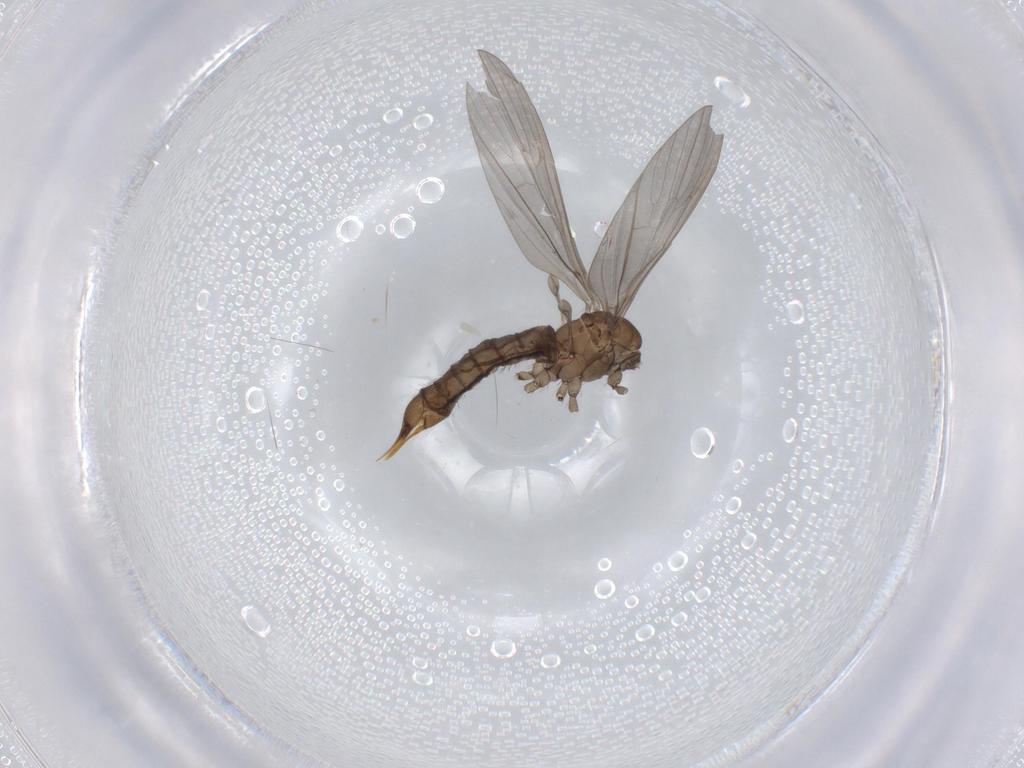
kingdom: Animalia
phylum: Arthropoda
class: Insecta
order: Diptera
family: Limoniidae
